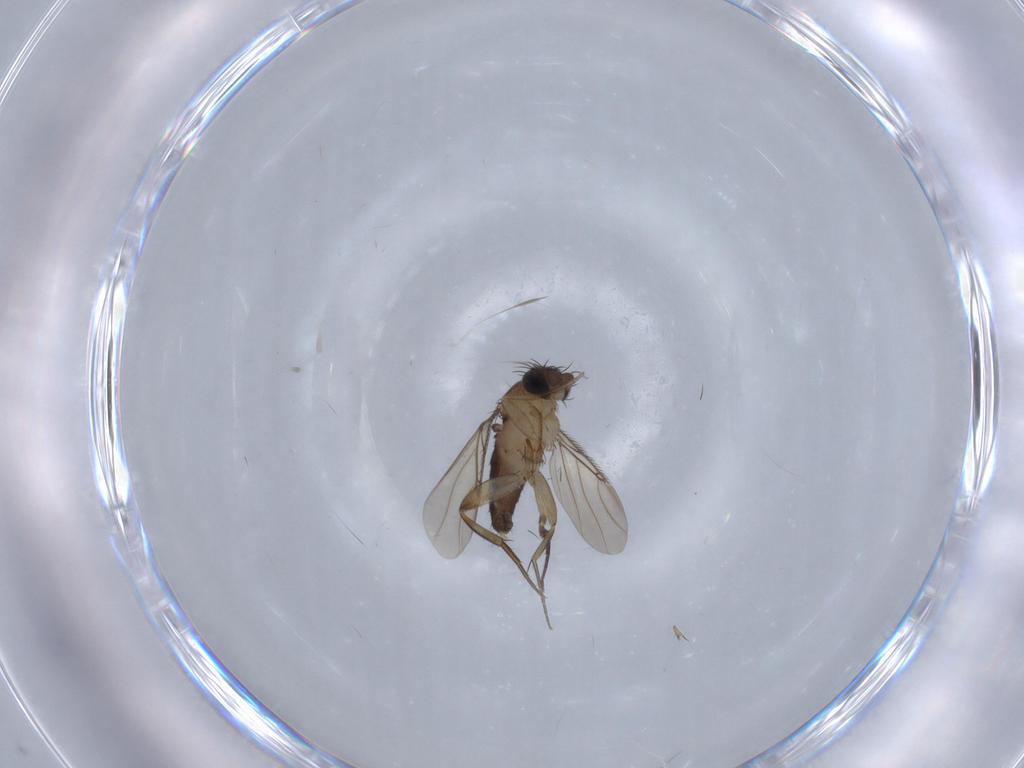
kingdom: Animalia
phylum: Arthropoda
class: Insecta
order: Diptera
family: Phoridae
